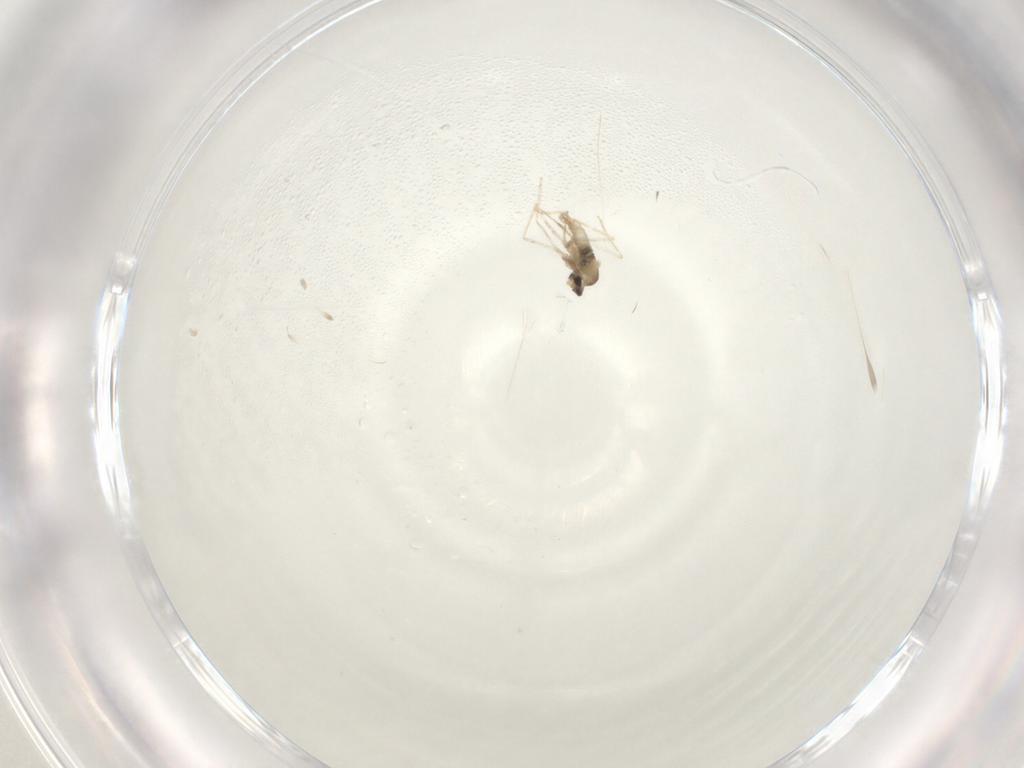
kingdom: Animalia
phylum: Arthropoda
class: Insecta
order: Diptera
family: Cecidomyiidae
